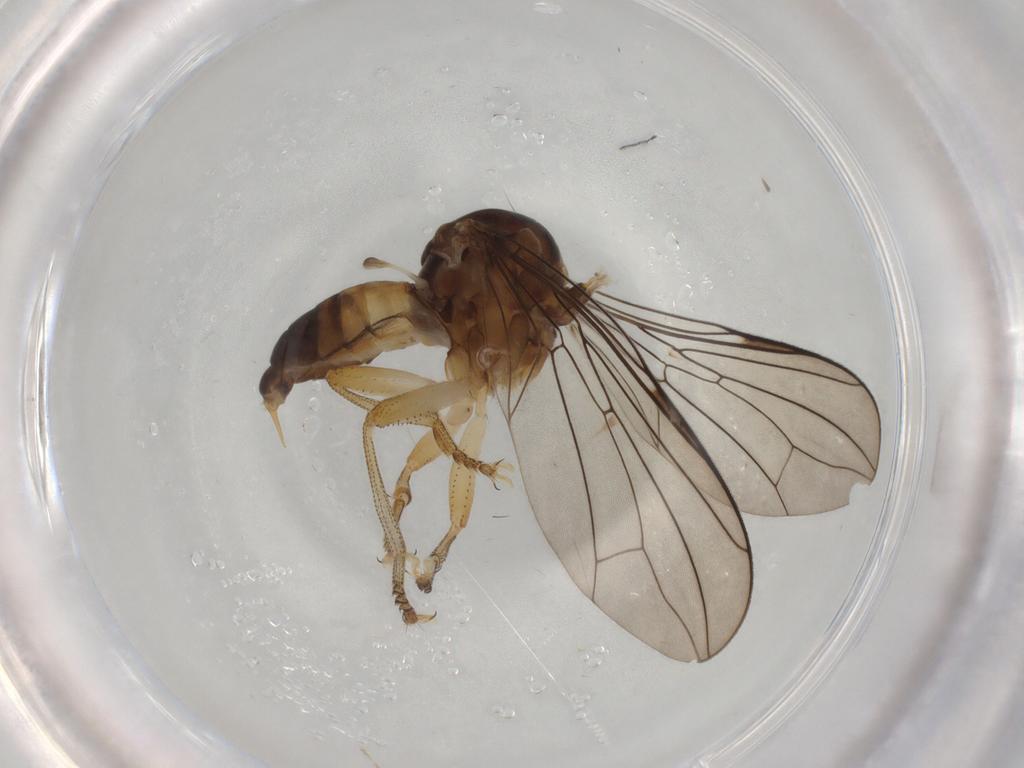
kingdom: Animalia
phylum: Arthropoda
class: Insecta
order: Diptera
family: Pipunculidae
